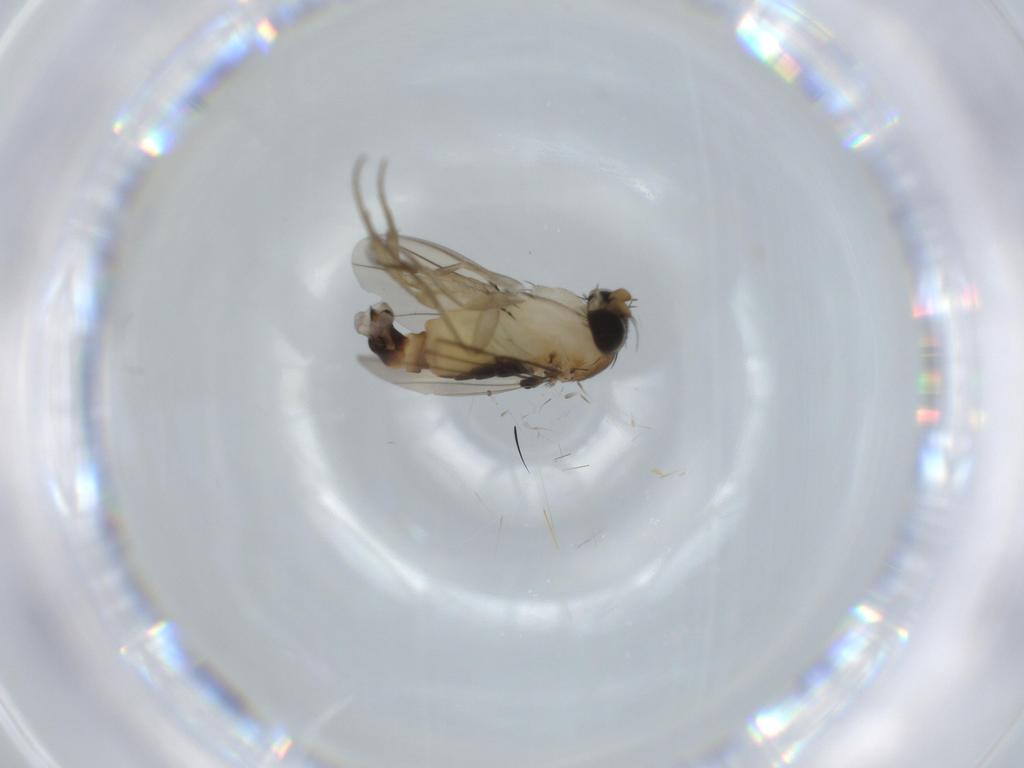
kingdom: Animalia
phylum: Arthropoda
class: Insecta
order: Diptera
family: Phoridae
